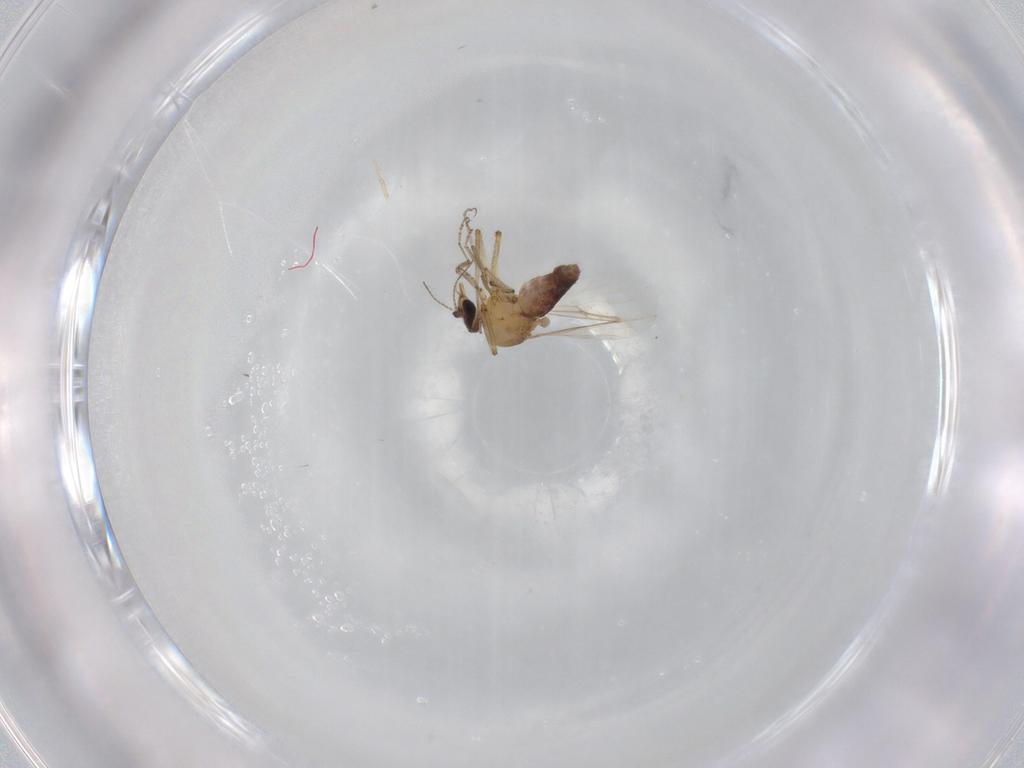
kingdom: Animalia
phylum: Arthropoda
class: Insecta
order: Diptera
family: Ceratopogonidae
